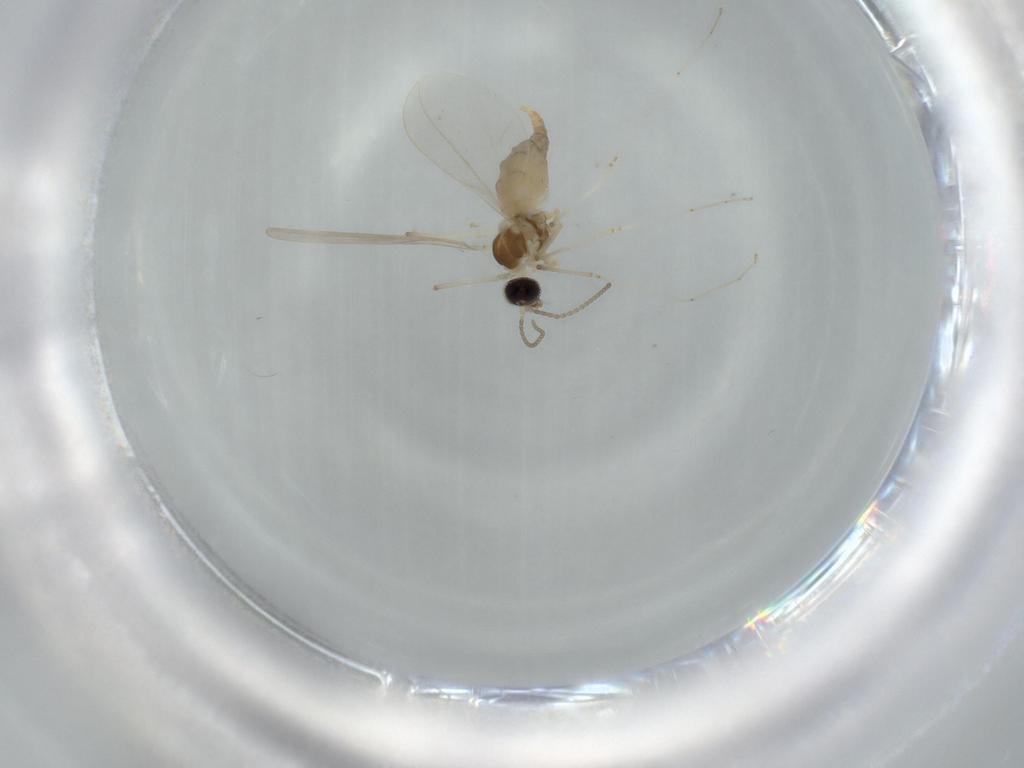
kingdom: Animalia
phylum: Arthropoda
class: Insecta
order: Diptera
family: Cecidomyiidae
